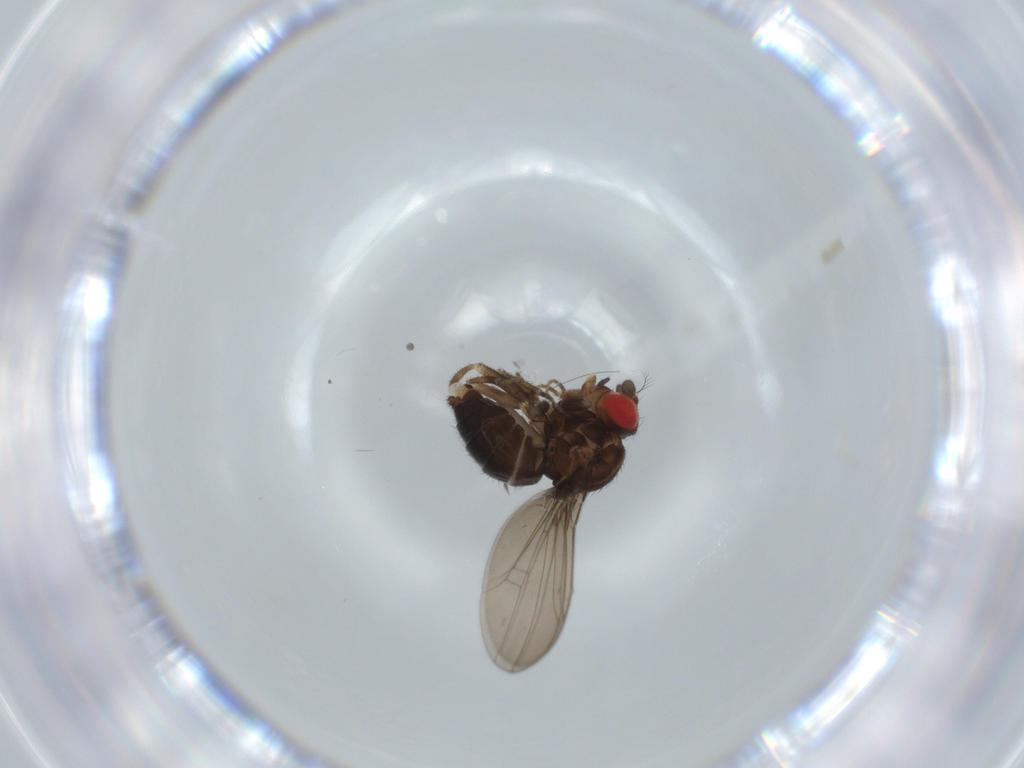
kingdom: Animalia
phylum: Arthropoda
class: Insecta
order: Diptera
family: Drosophilidae
